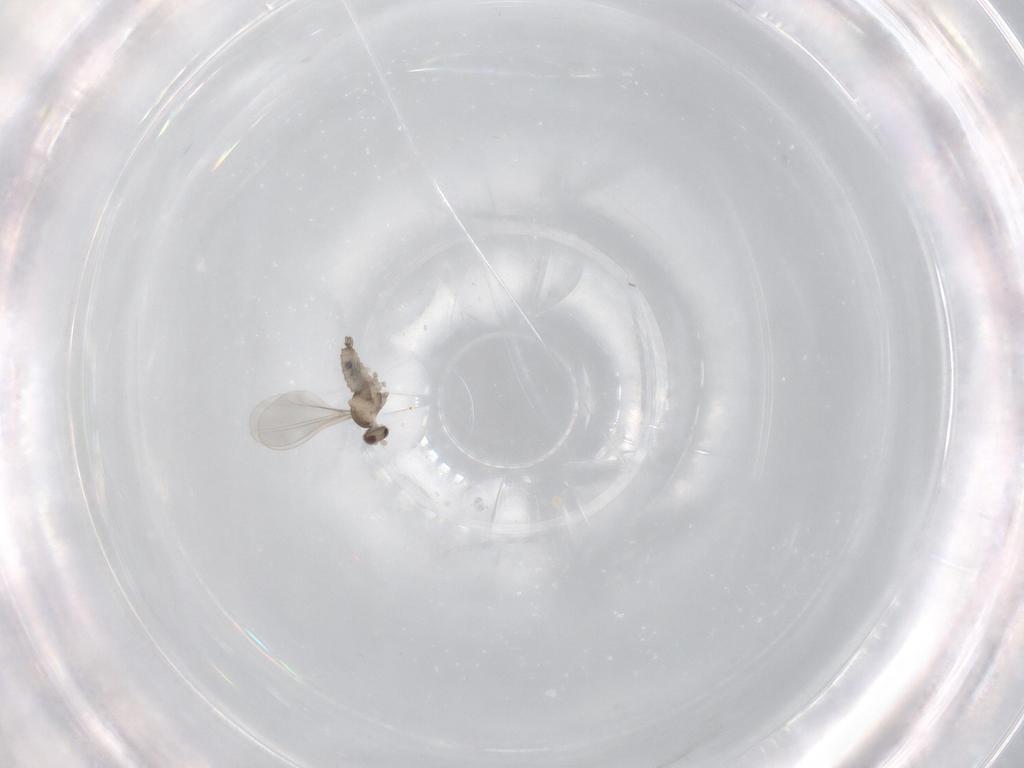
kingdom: Animalia
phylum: Arthropoda
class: Insecta
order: Diptera
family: Cecidomyiidae
